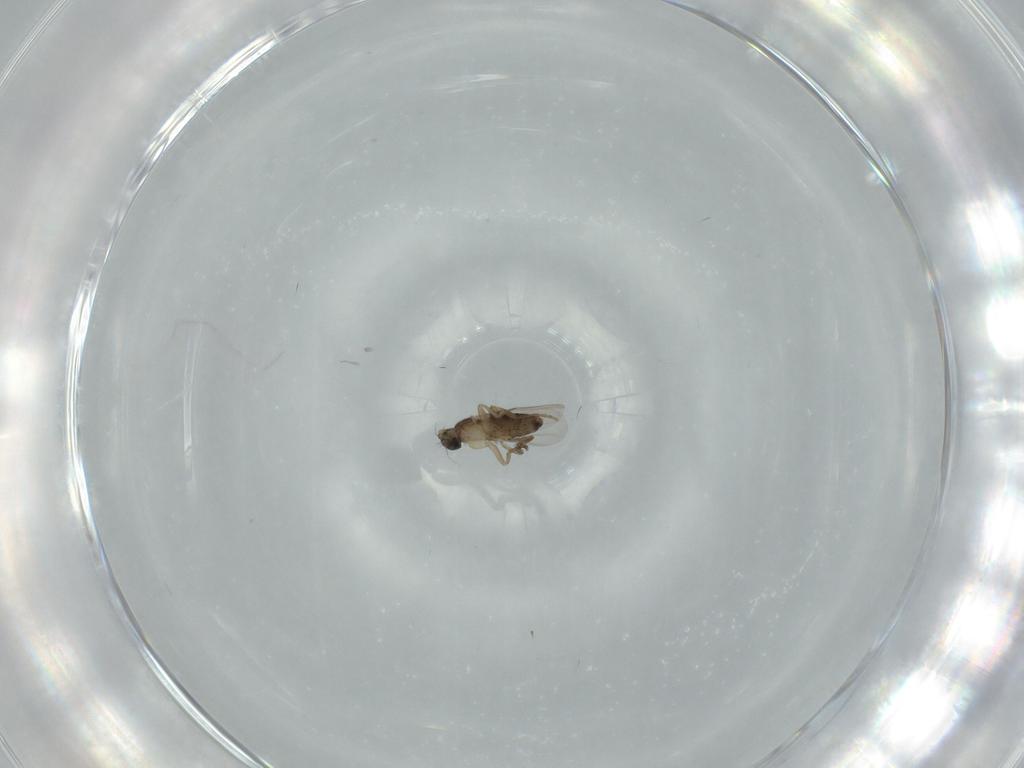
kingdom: Animalia
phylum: Arthropoda
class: Insecta
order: Diptera
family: Phoridae
